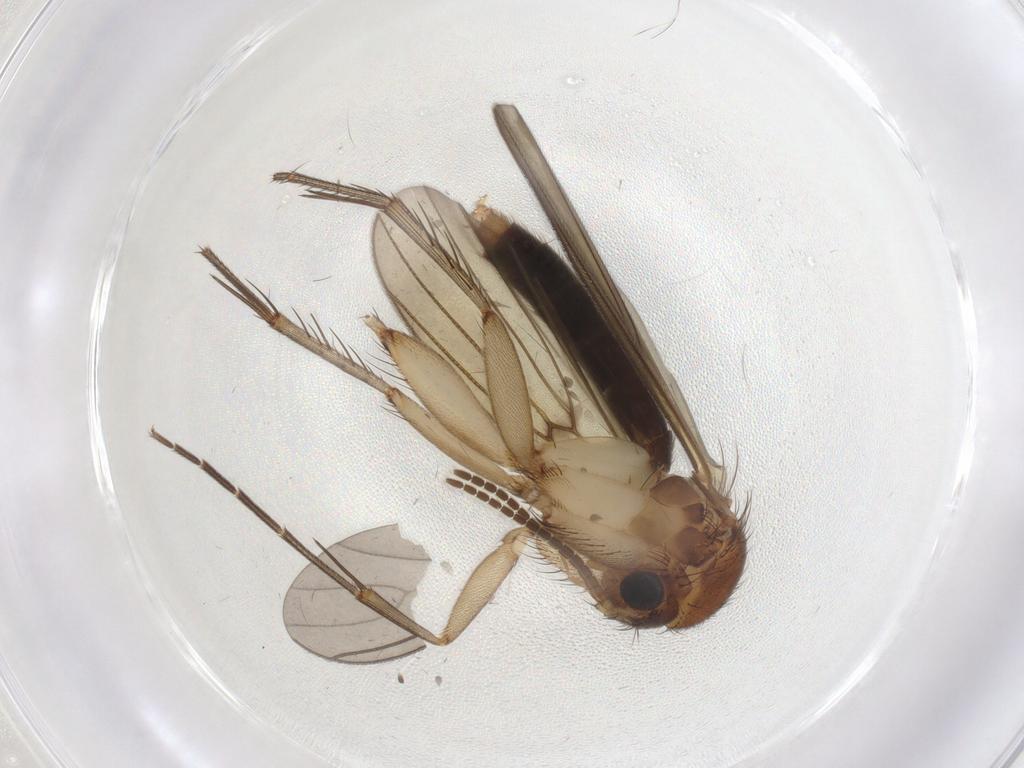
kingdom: Animalia
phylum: Arthropoda
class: Insecta
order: Diptera
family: Mycetophilidae
